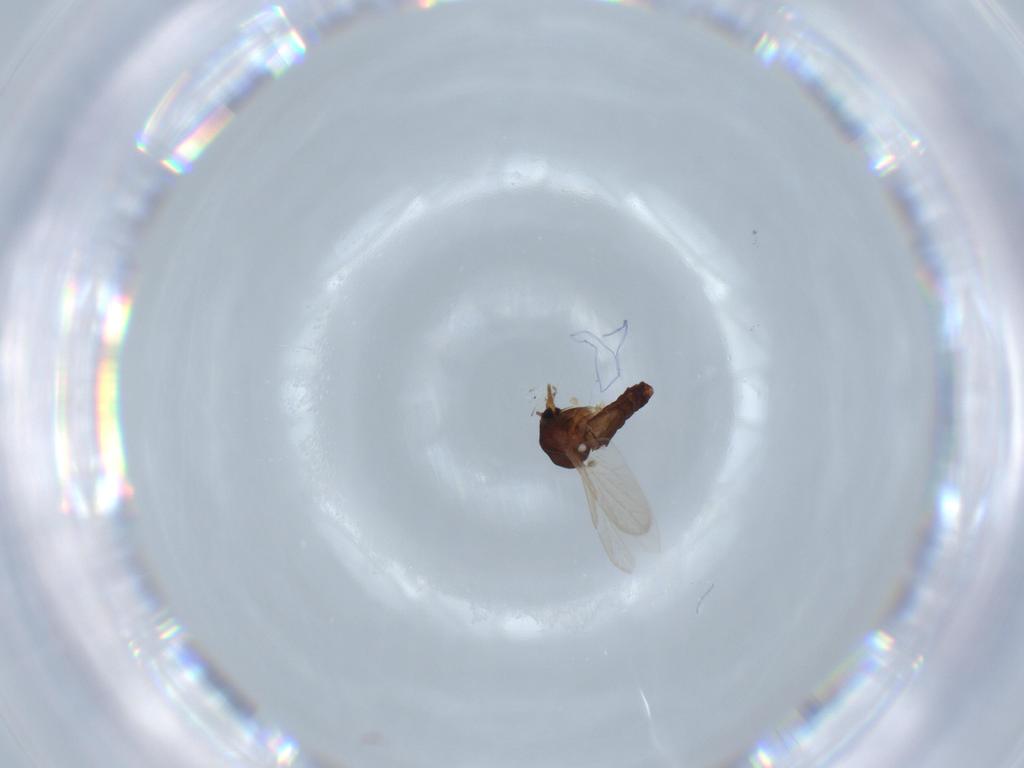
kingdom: Animalia
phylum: Arthropoda
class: Insecta
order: Diptera
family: Ceratopogonidae
